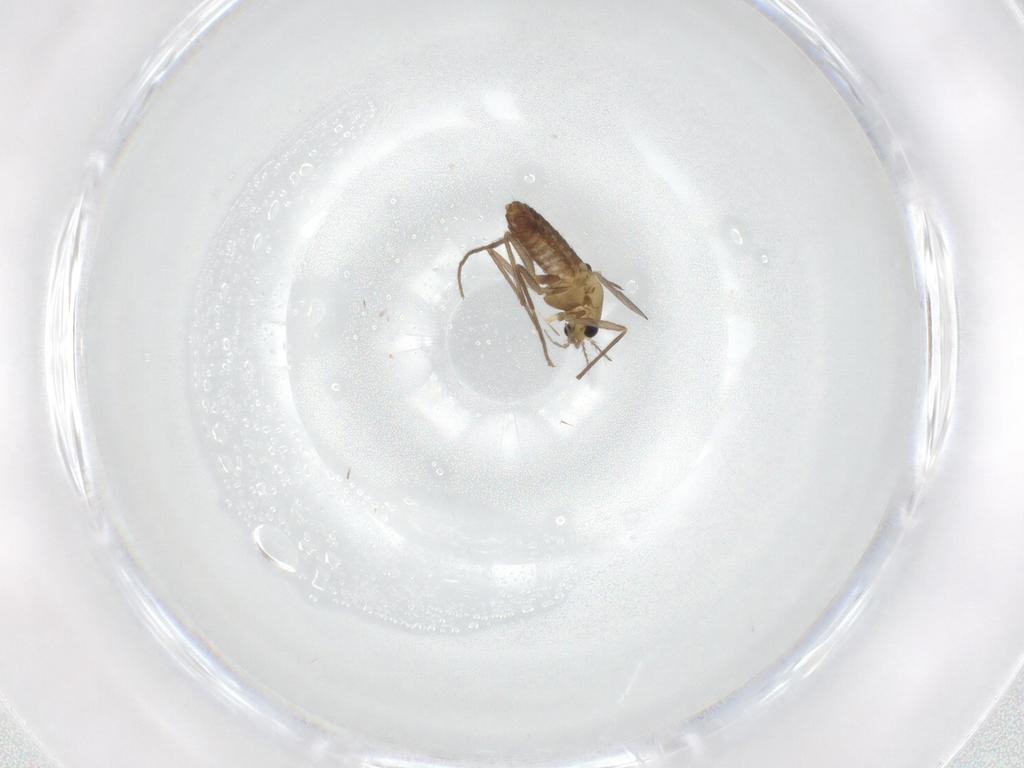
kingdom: Animalia
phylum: Arthropoda
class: Insecta
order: Diptera
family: Chironomidae
